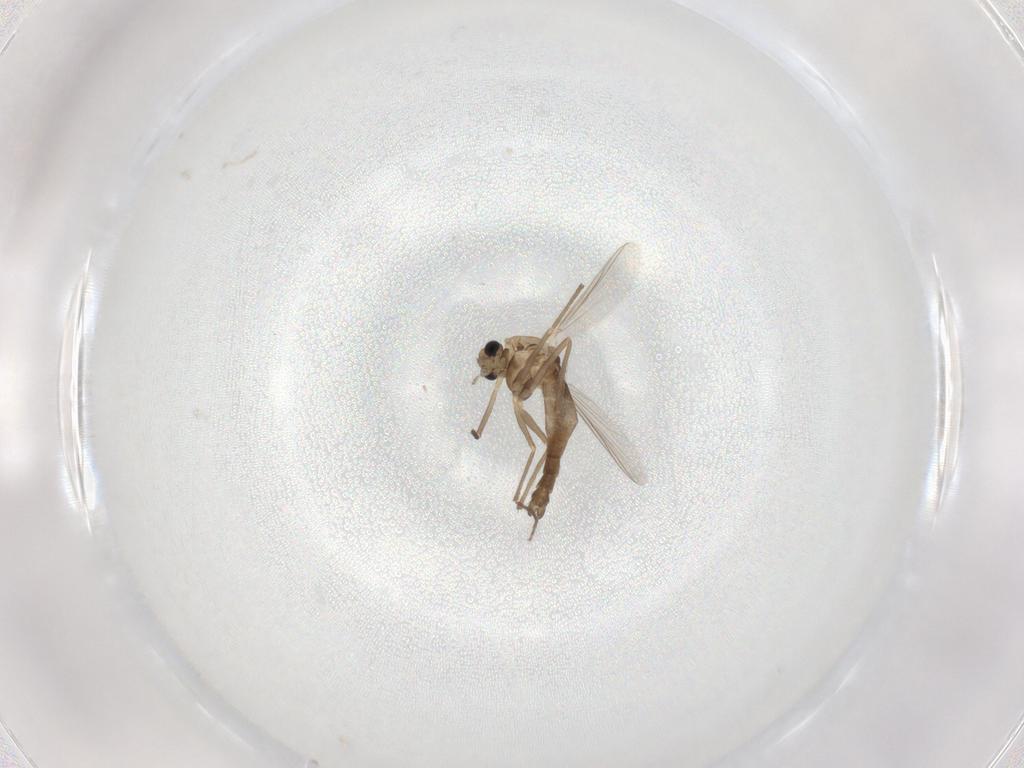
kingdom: Animalia
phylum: Arthropoda
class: Insecta
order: Diptera
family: Chironomidae
